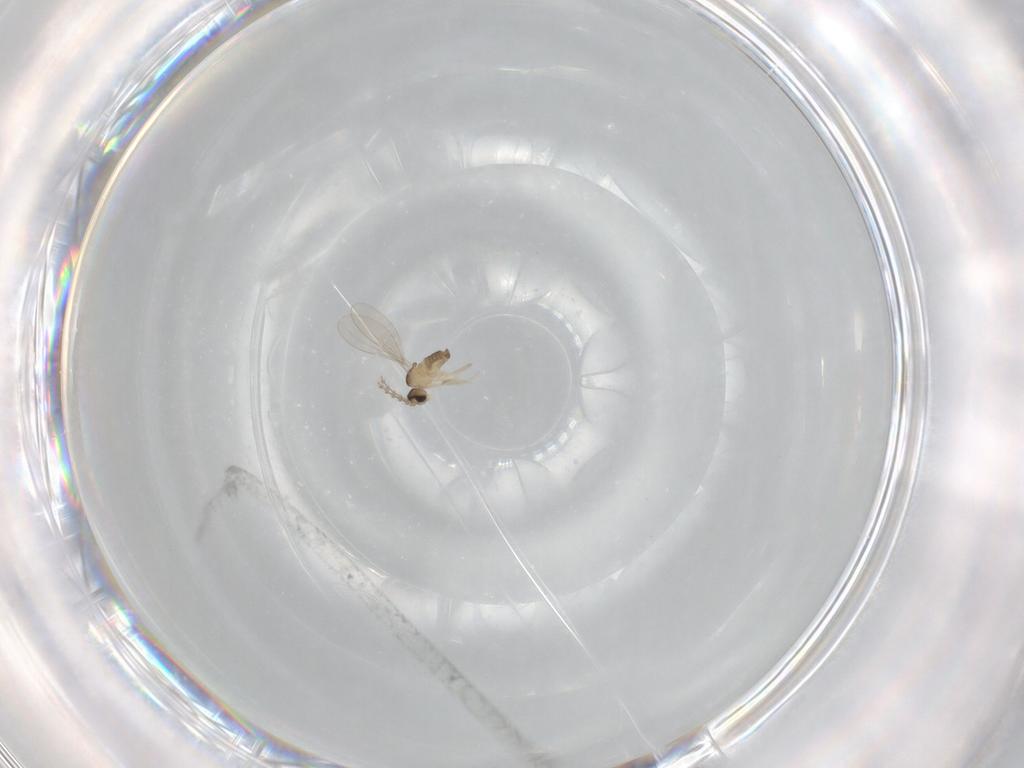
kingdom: Animalia
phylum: Arthropoda
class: Insecta
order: Diptera
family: Cecidomyiidae
